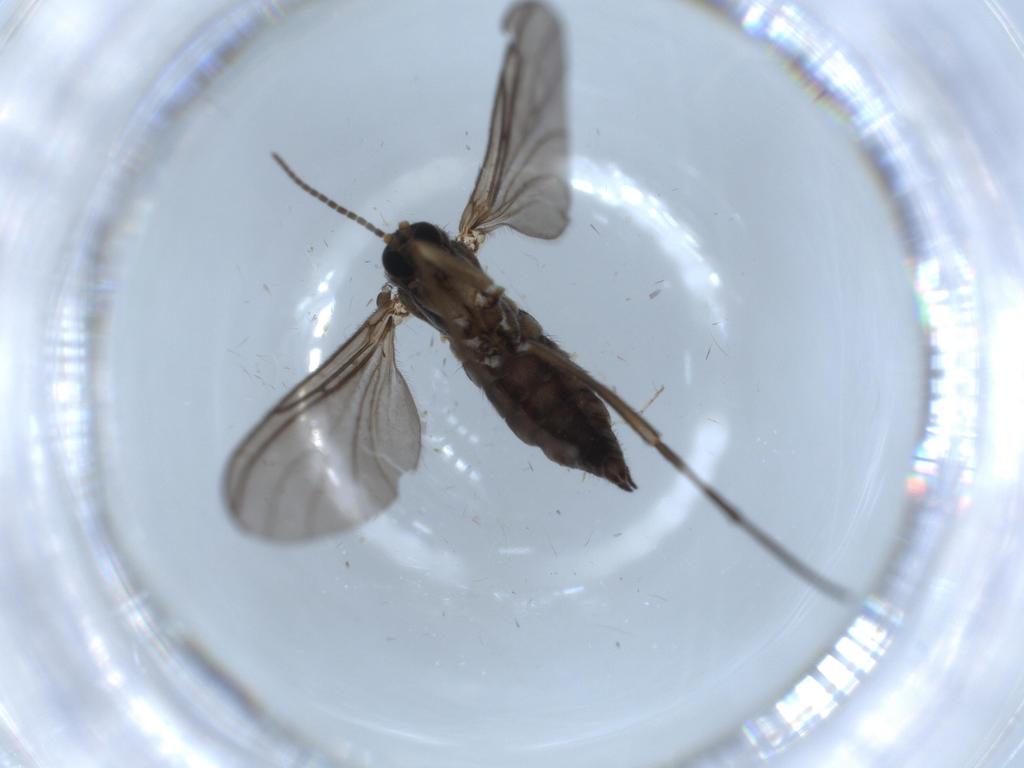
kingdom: Animalia
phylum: Arthropoda
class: Insecta
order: Diptera
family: Sciaridae
